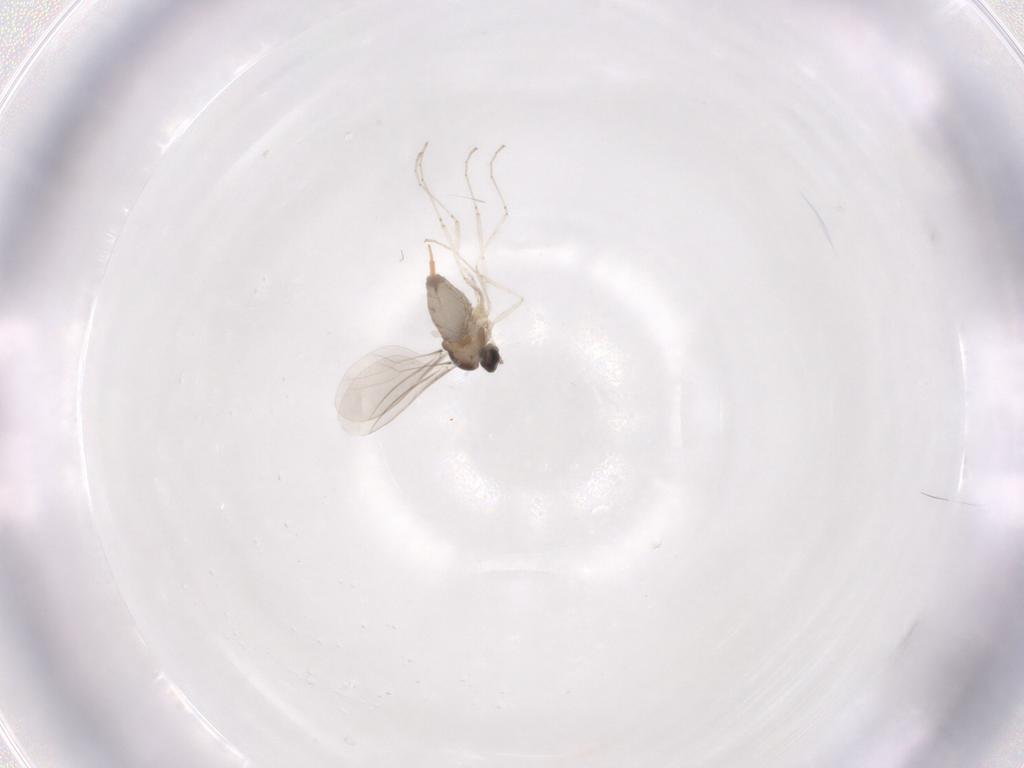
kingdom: Animalia
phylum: Arthropoda
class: Insecta
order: Diptera
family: Cecidomyiidae
